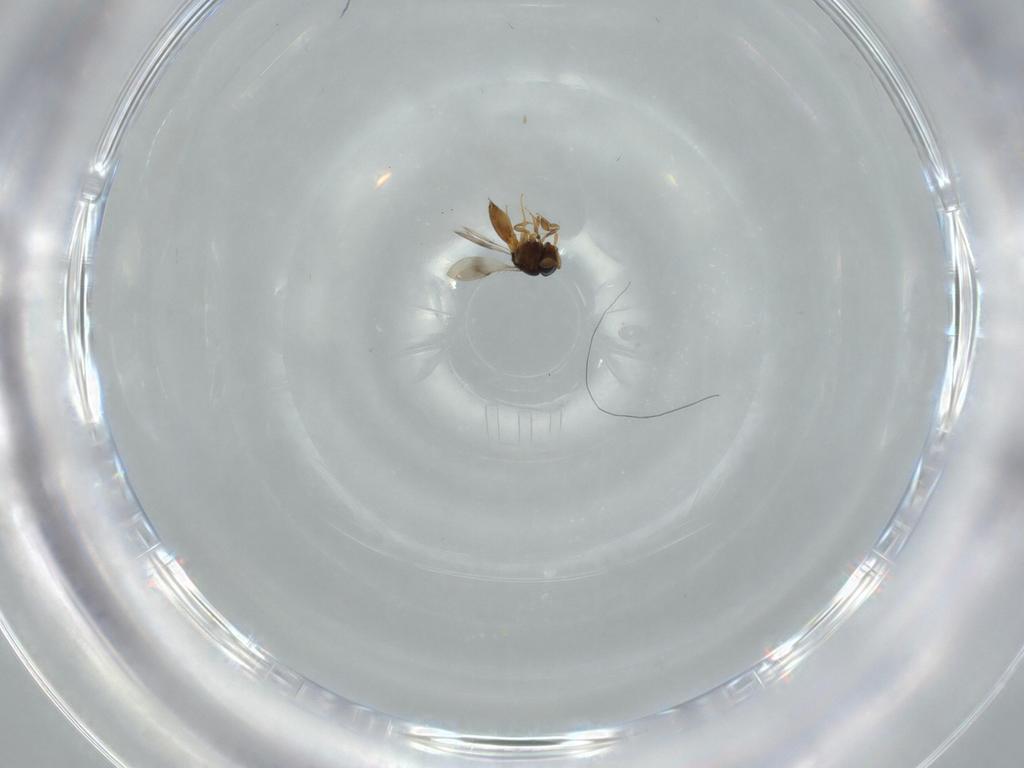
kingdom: Animalia
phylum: Arthropoda
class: Insecta
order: Hymenoptera
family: Scelionidae
